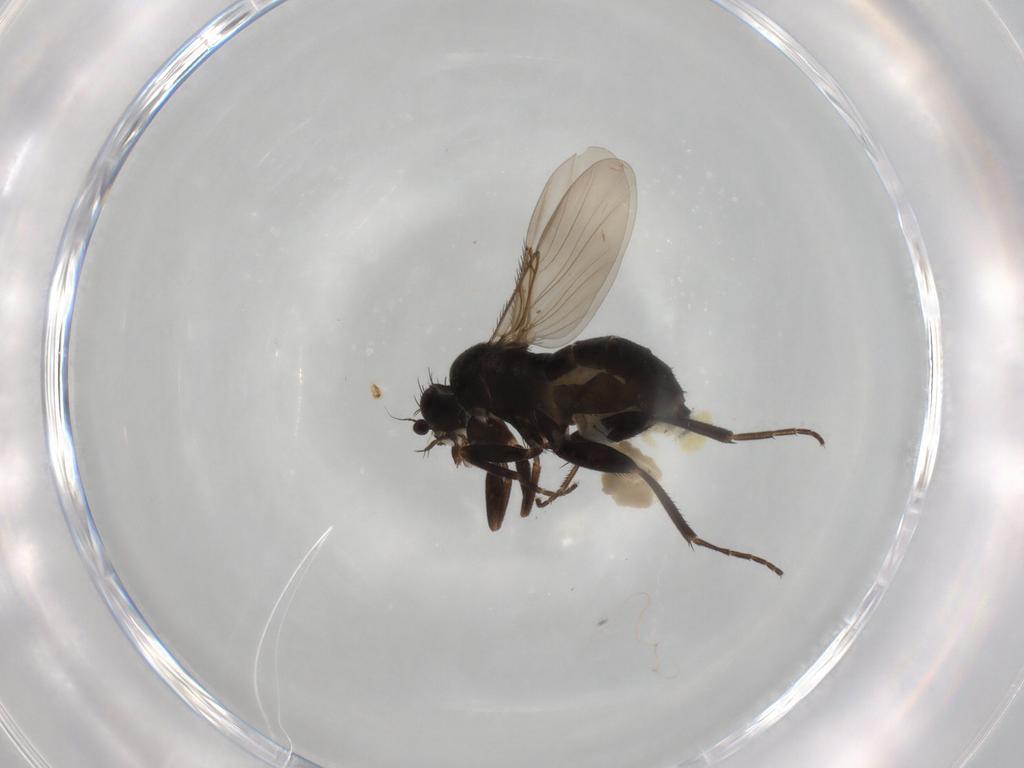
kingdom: Animalia
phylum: Arthropoda
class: Insecta
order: Diptera
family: Phoridae
